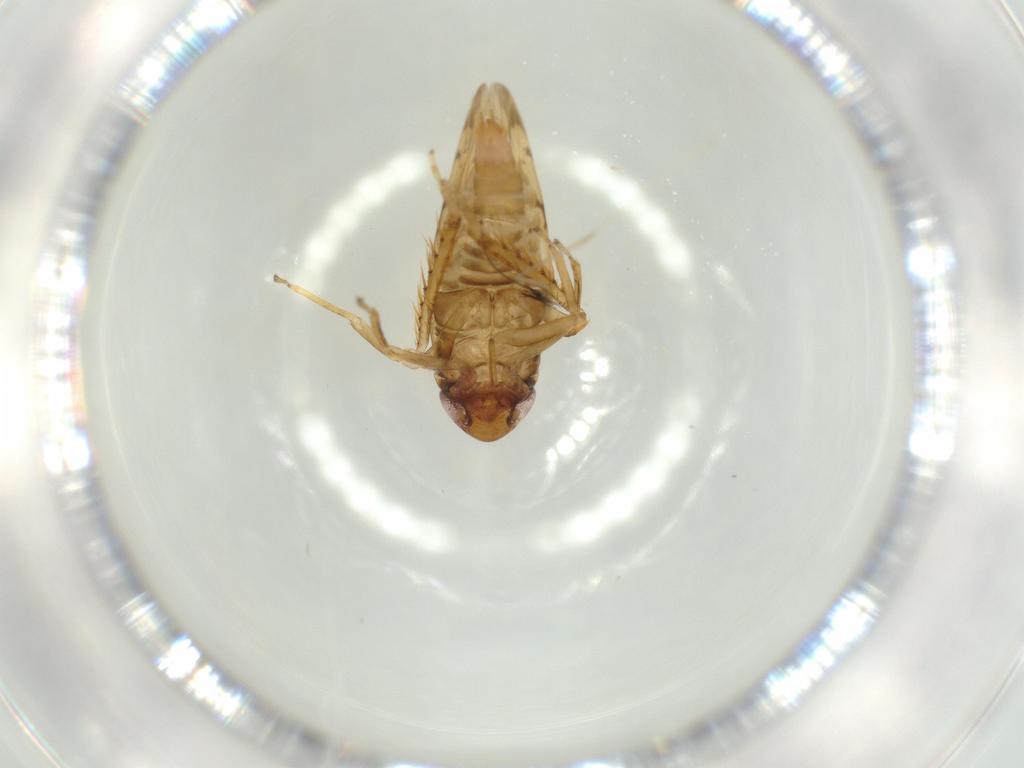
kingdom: Animalia
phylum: Arthropoda
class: Insecta
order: Hemiptera
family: Cicadellidae
